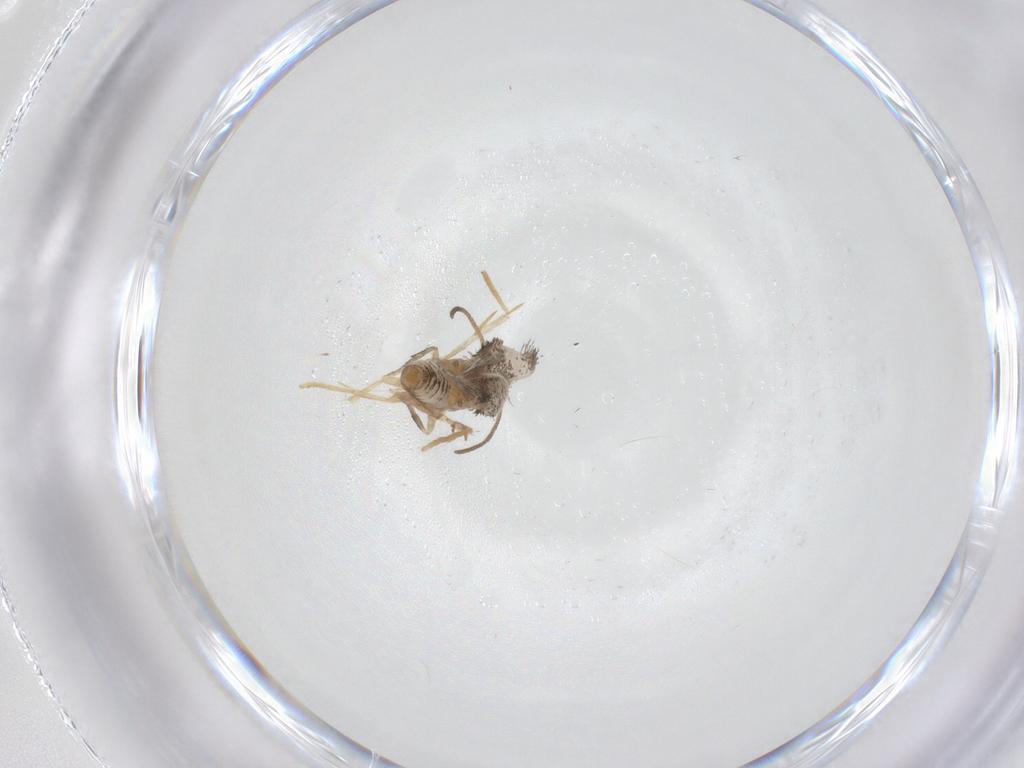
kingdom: Animalia
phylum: Arthropoda
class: Insecta
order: Lepidoptera
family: Nepticulidae
